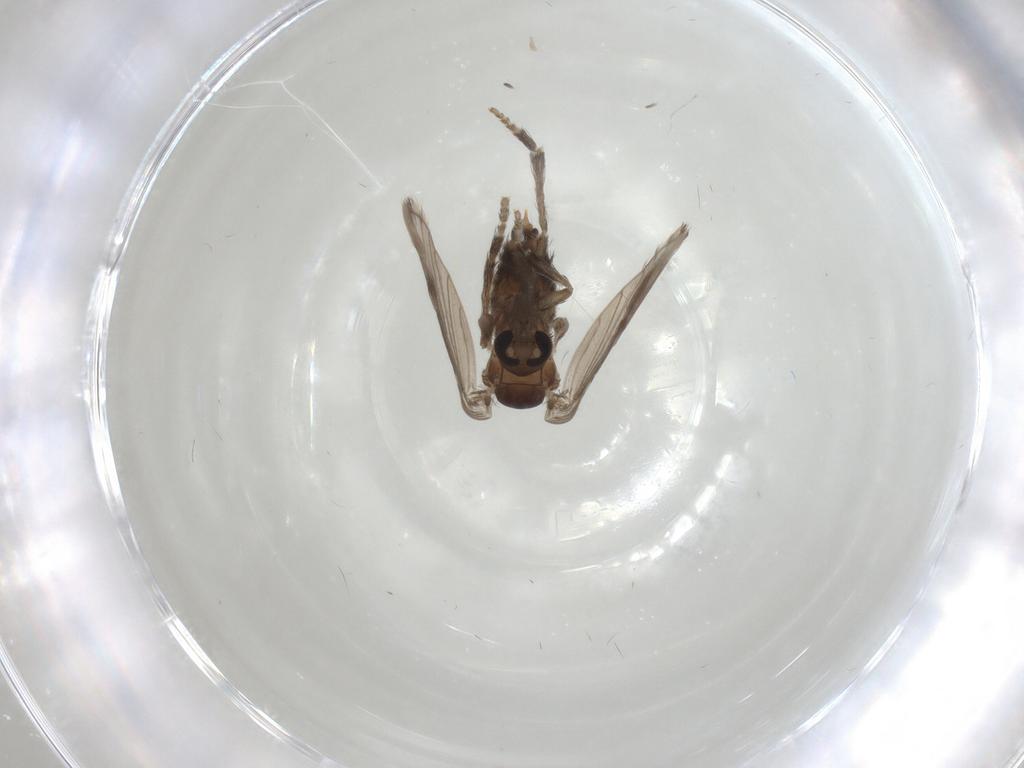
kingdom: Animalia
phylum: Arthropoda
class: Insecta
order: Diptera
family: Psychodidae
